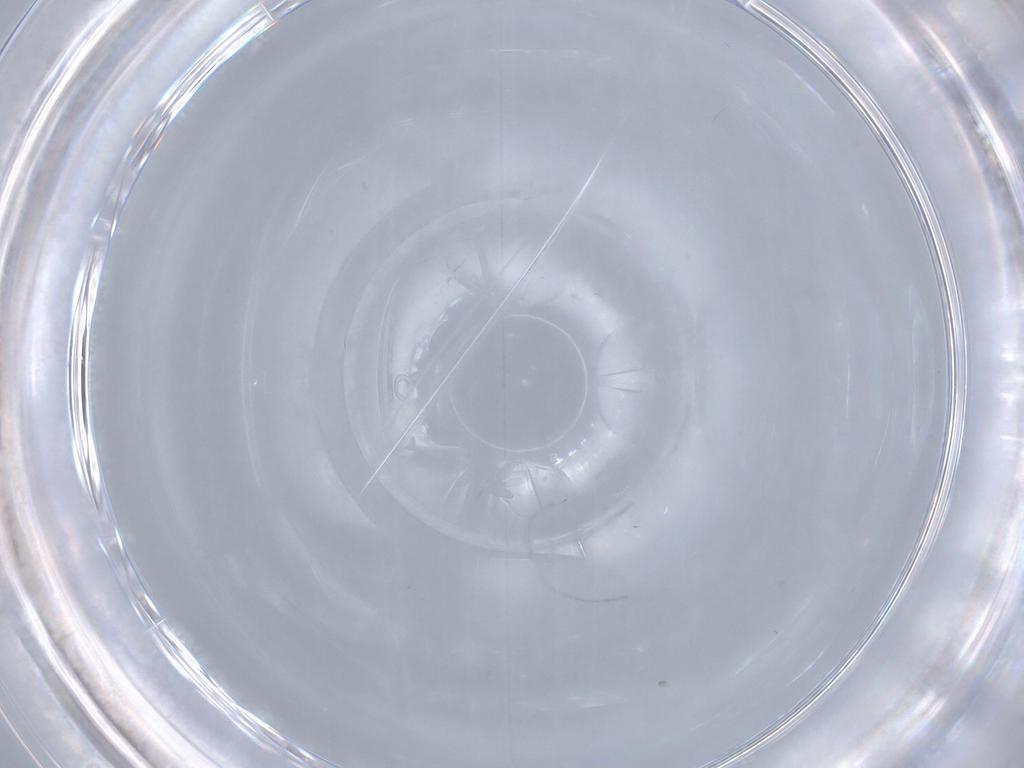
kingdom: Animalia
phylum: Arthropoda
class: Insecta
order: Diptera
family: Phoridae
